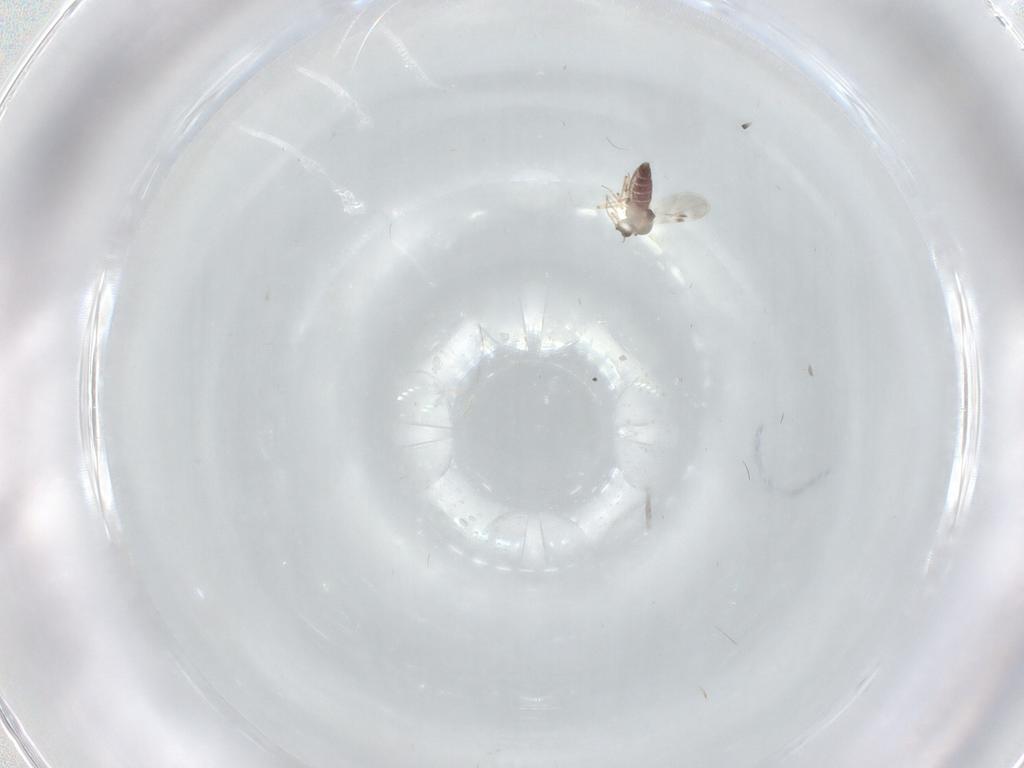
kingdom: Animalia
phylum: Arthropoda
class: Insecta
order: Diptera
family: Chironomidae
